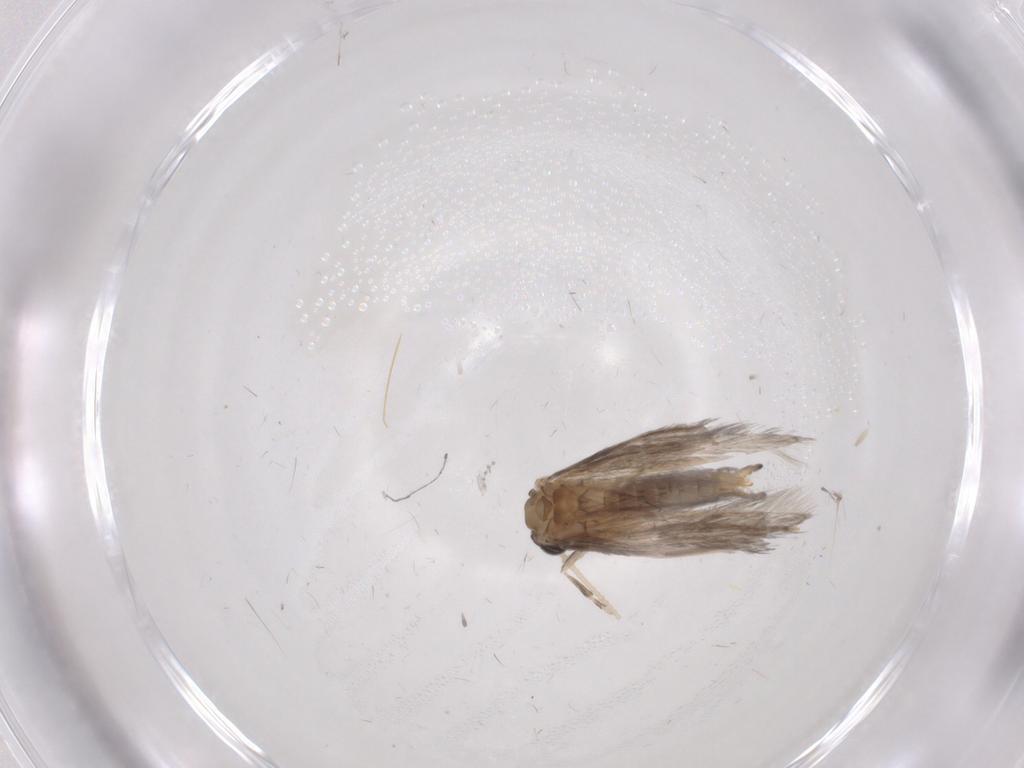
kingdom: Animalia
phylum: Arthropoda
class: Insecta
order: Trichoptera
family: Hydroptilidae
